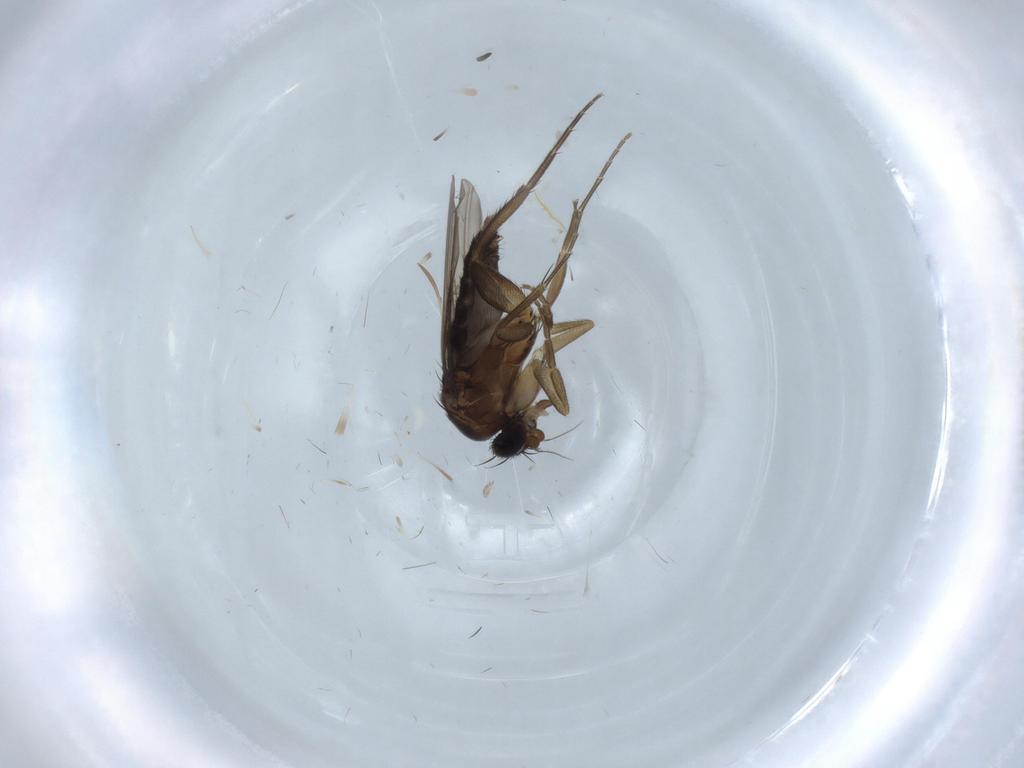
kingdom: Animalia
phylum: Arthropoda
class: Insecta
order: Diptera
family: Phoridae
